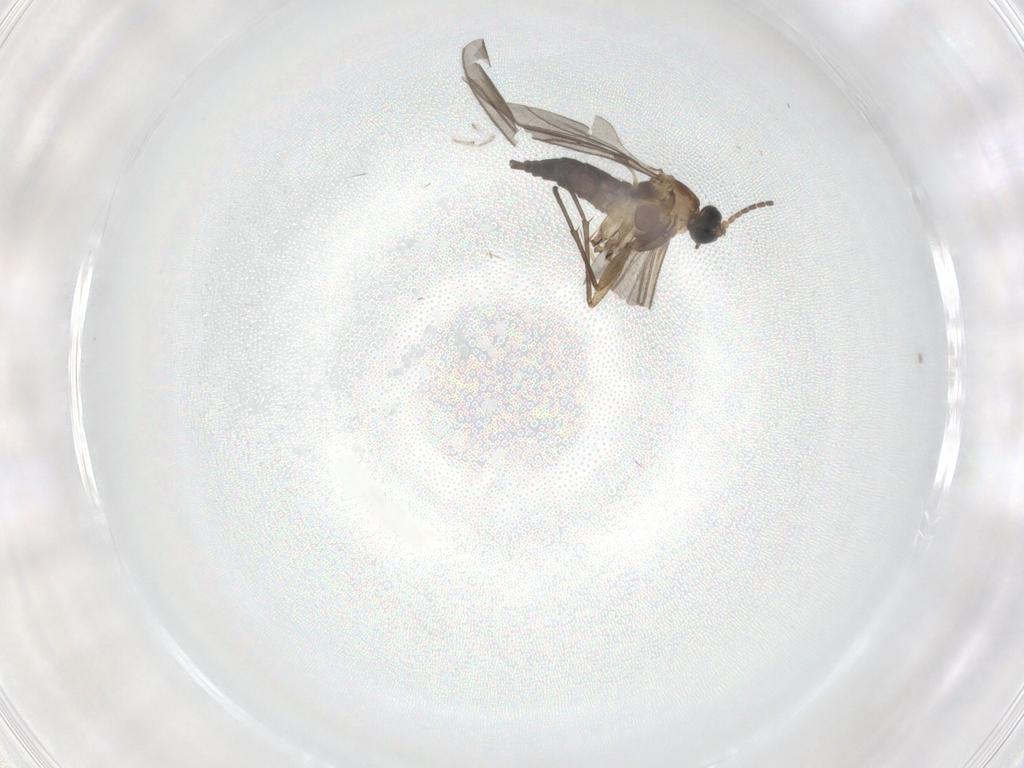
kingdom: Animalia
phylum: Arthropoda
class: Insecta
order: Diptera
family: Sciaridae
